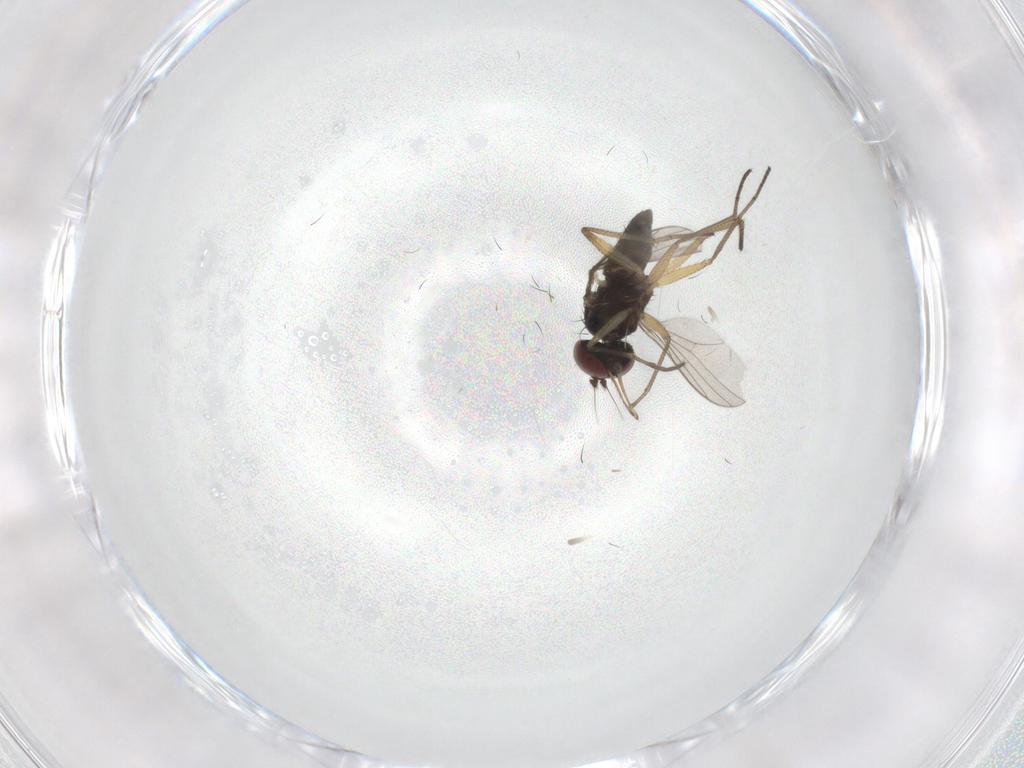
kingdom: Animalia
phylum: Arthropoda
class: Insecta
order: Diptera
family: Dolichopodidae
